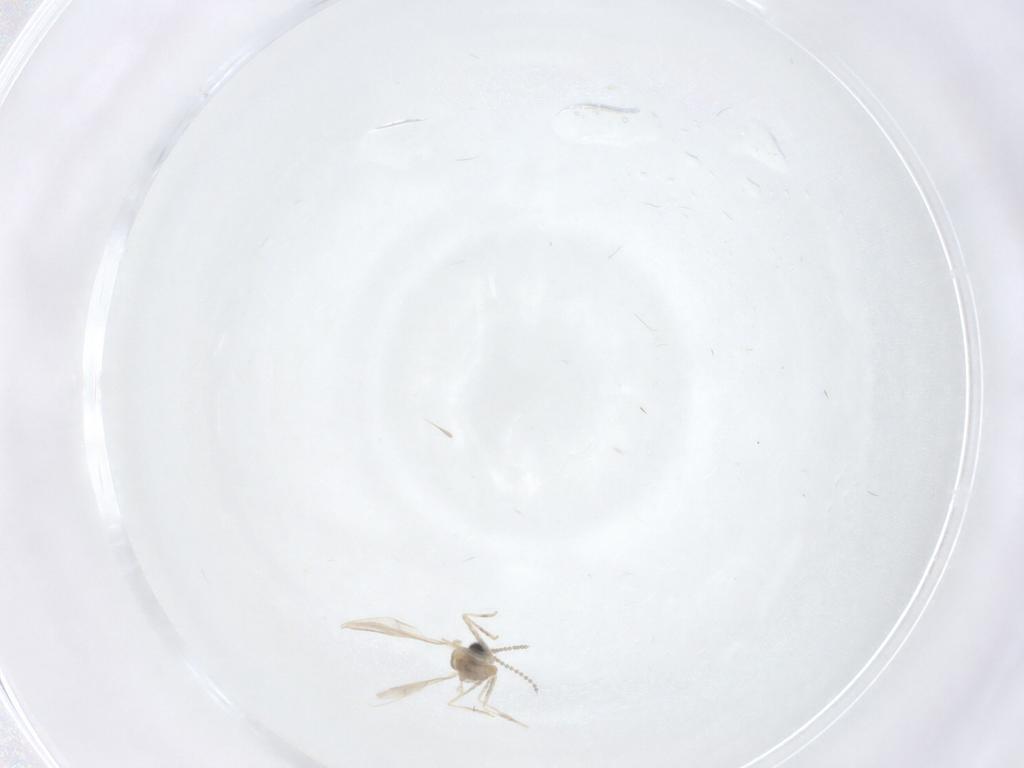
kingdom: Animalia
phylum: Arthropoda
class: Insecta
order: Diptera
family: Cecidomyiidae
